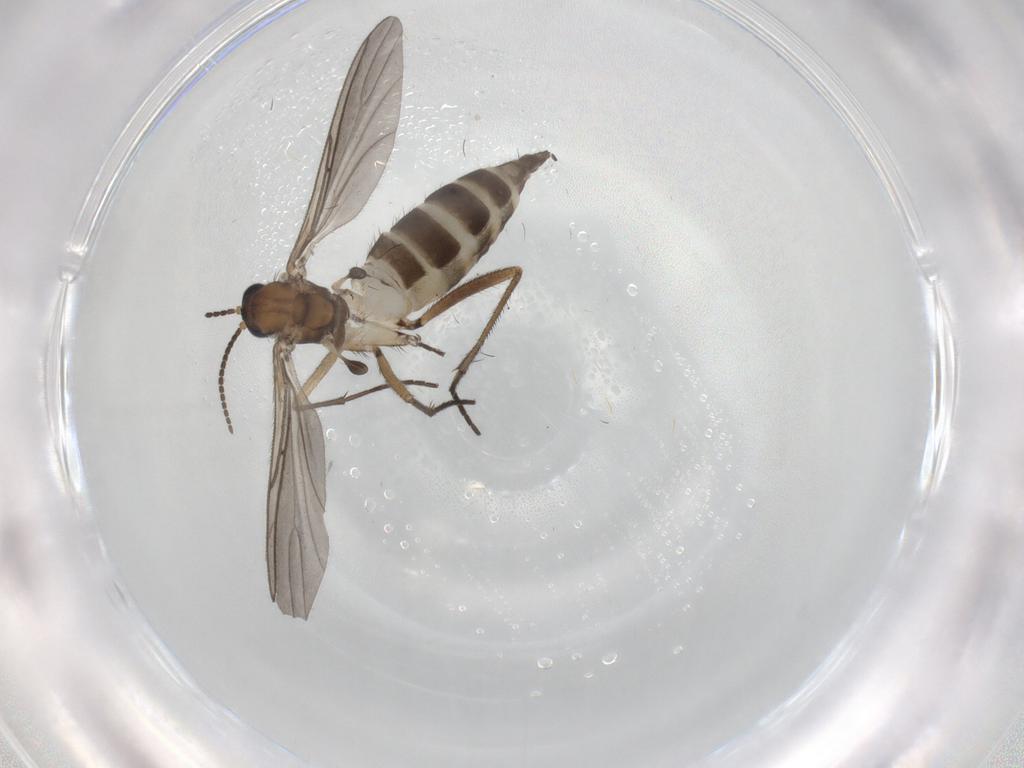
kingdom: Animalia
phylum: Arthropoda
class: Insecta
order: Diptera
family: Sciaridae
